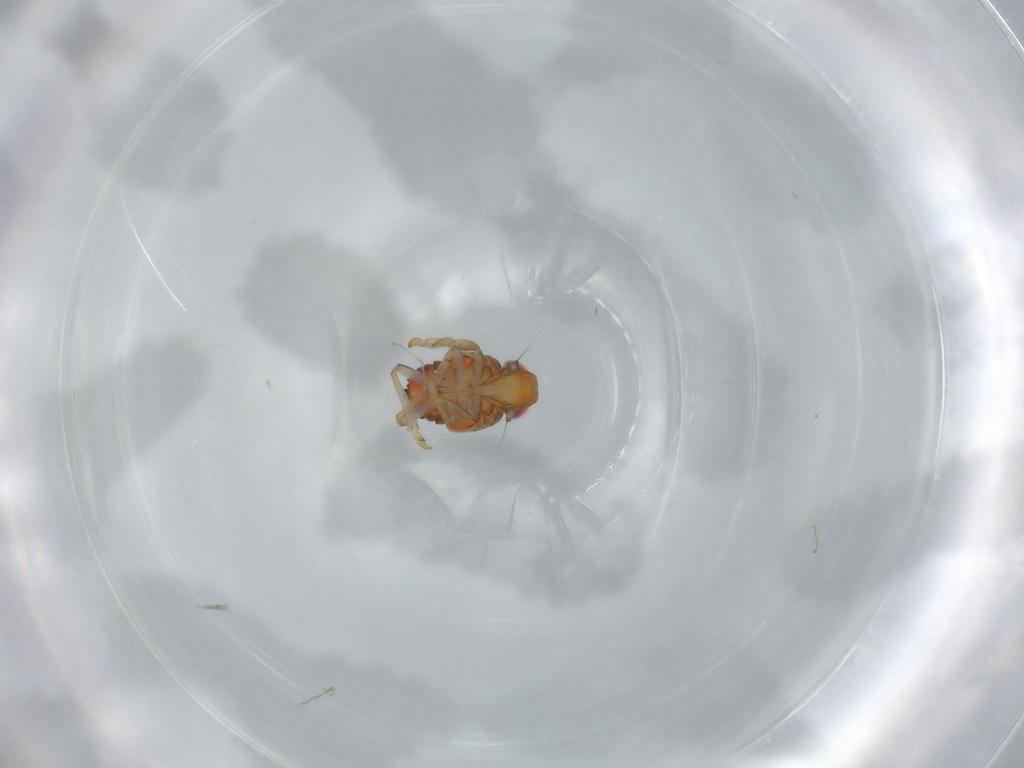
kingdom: Animalia
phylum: Arthropoda
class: Insecta
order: Hemiptera
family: Issidae
